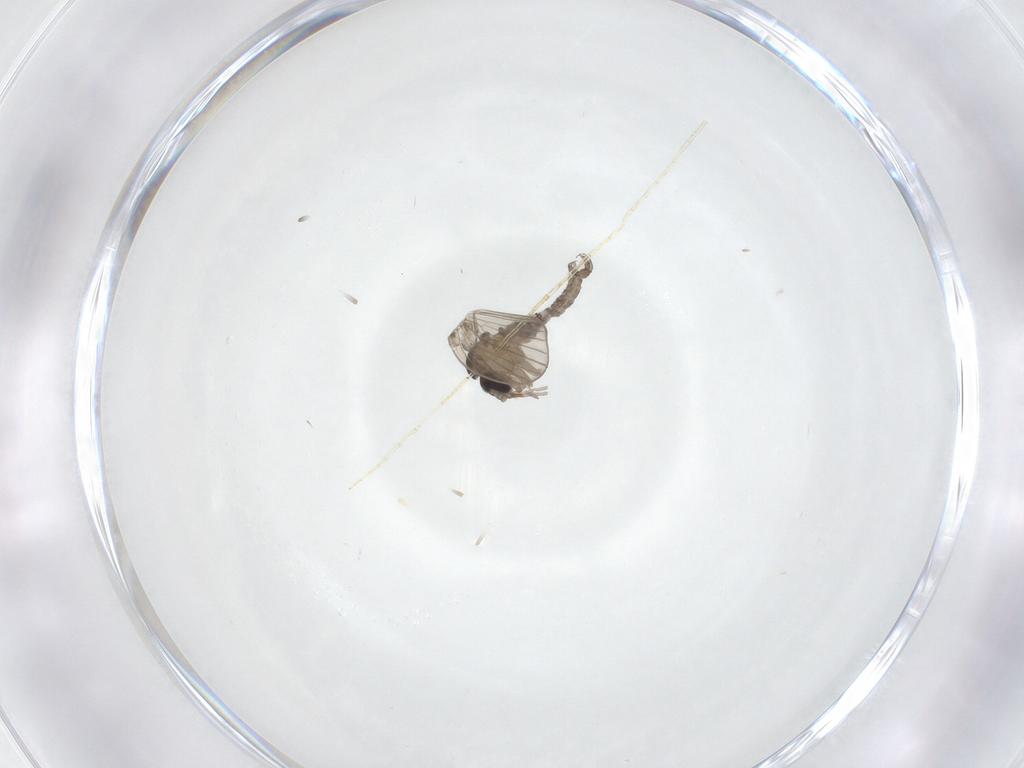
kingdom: Animalia
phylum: Arthropoda
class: Insecta
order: Diptera
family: Psychodidae
